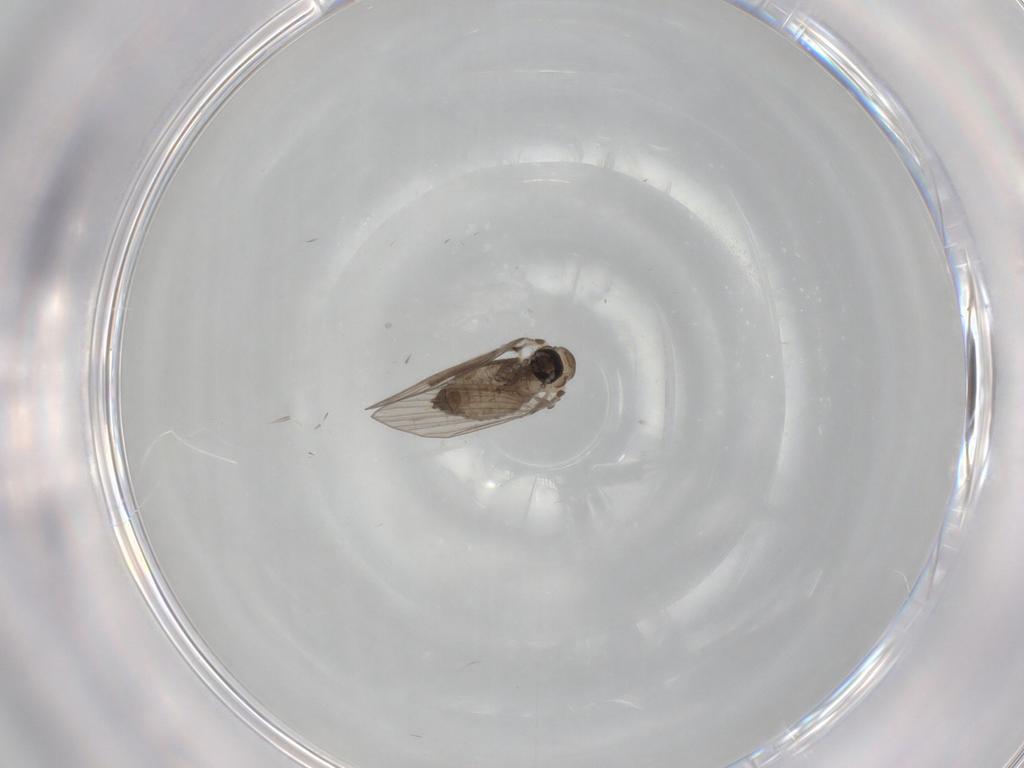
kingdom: Animalia
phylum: Arthropoda
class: Insecta
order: Diptera
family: Psychodidae
